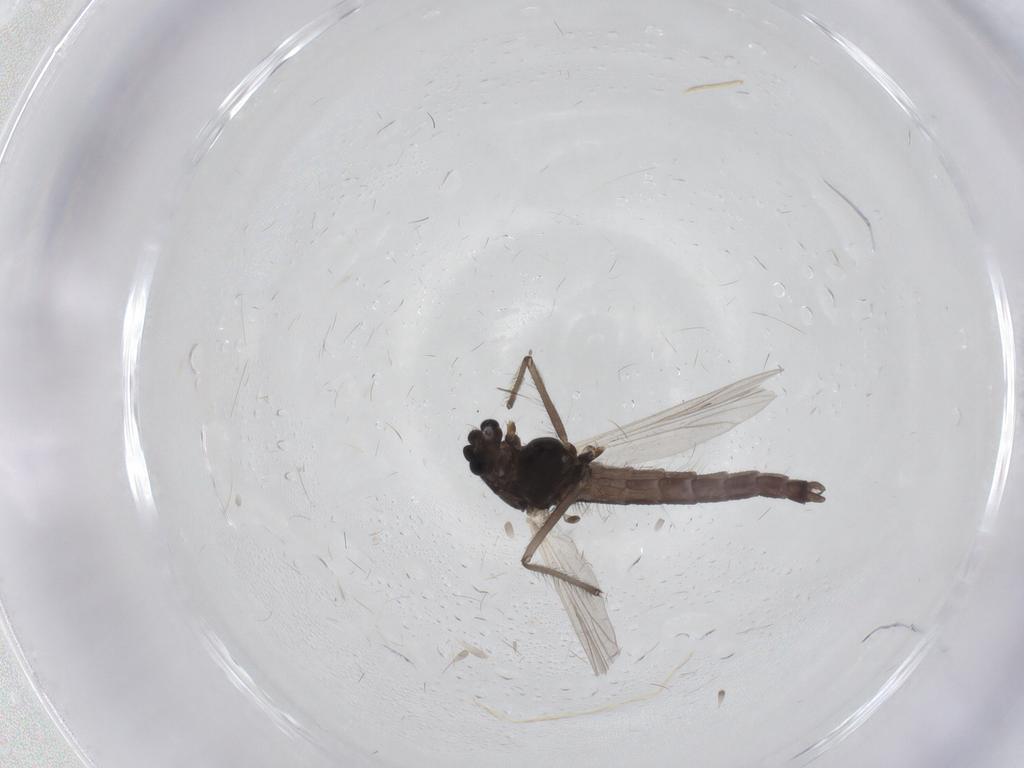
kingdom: Animalia
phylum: Arthropoda
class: Insecta
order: Diptera
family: Chironomidae
